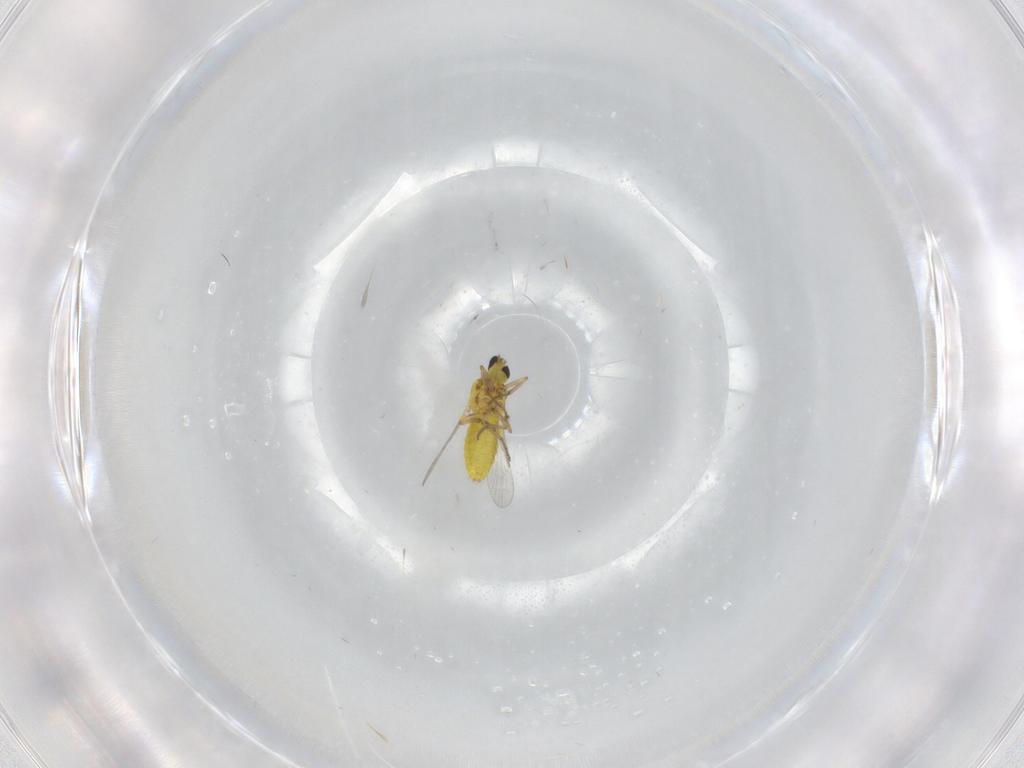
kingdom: Animalia
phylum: Arthropoda
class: Insecta
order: Diptera
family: Ceratopogonidae
